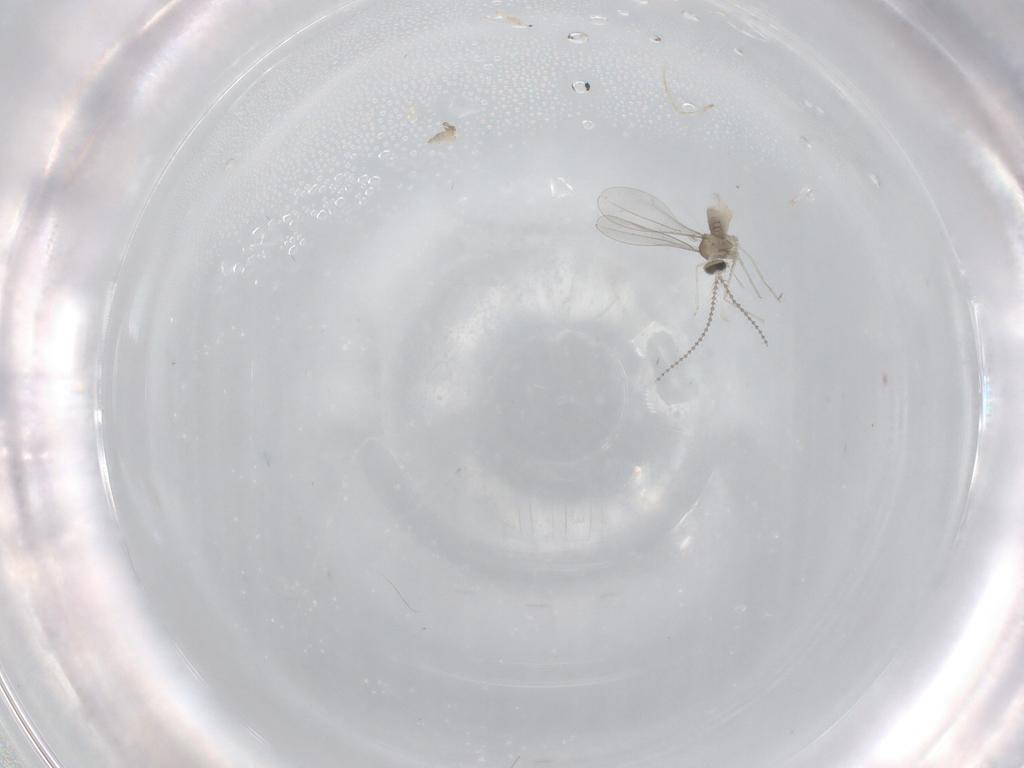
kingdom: Animalia
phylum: Arthropoda
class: Insecta
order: Diptera
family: Cecidomyiidae
